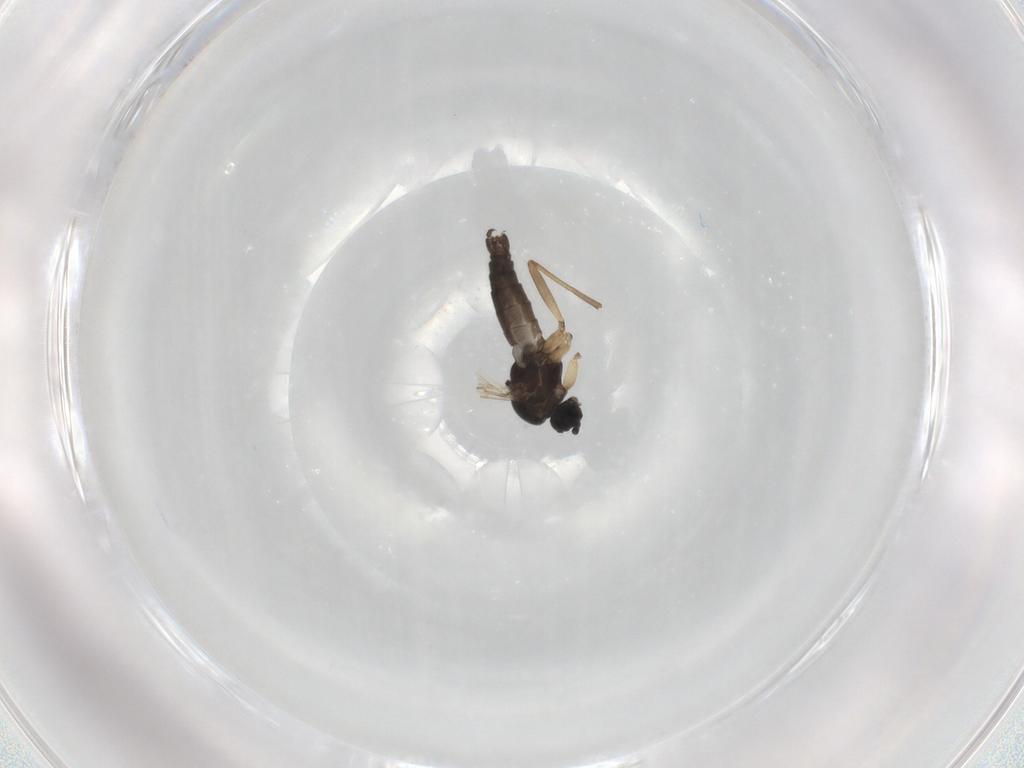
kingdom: Animalia
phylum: Arthropoda
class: Insecta
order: Diptera
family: Sciaridae
